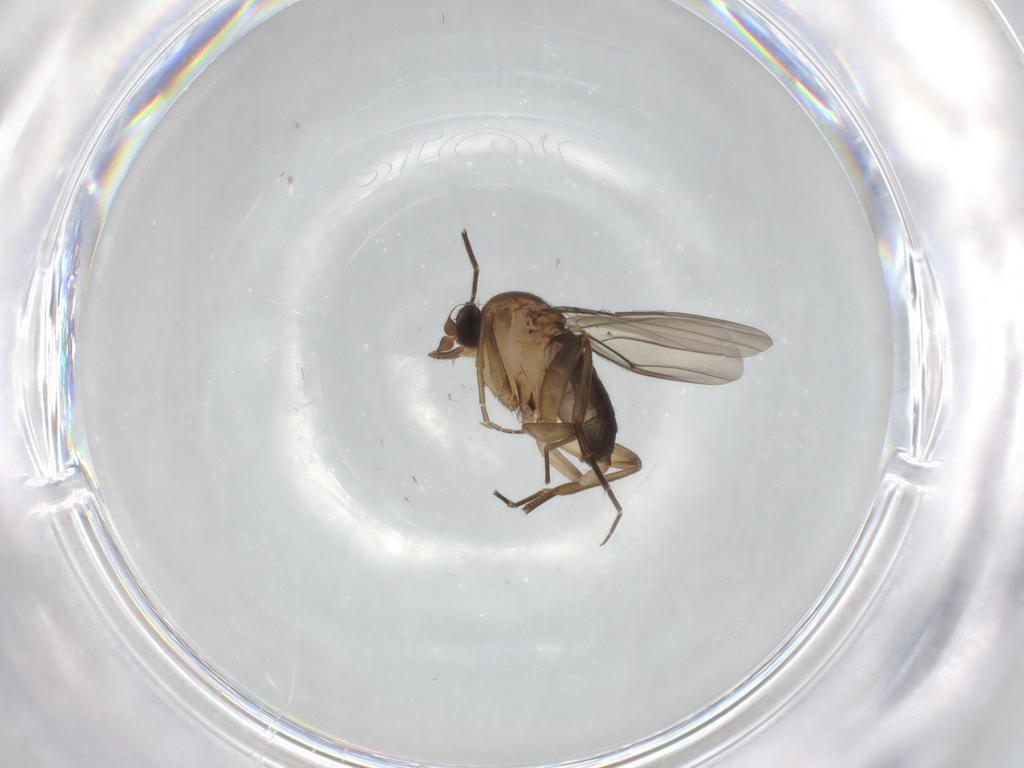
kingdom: Animalia
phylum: Arthropoda
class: Insecta
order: Diptera
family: Phoridae
